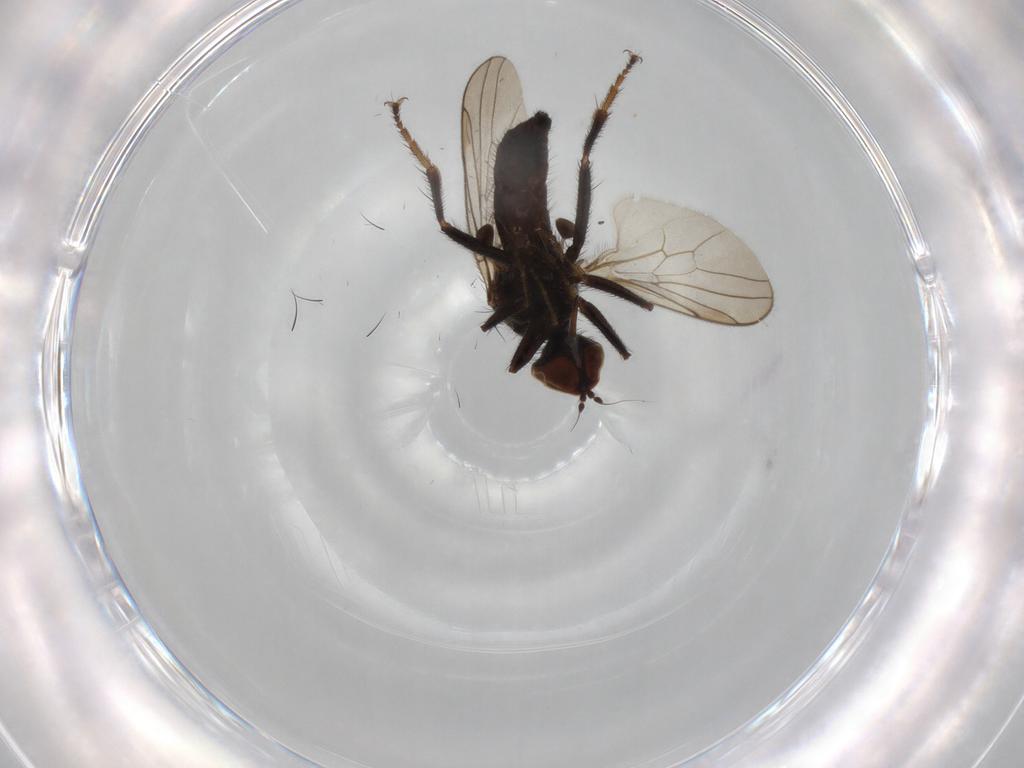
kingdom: Animalia
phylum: Arthropoda
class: Insecta
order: Diptera
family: Hybotidae
